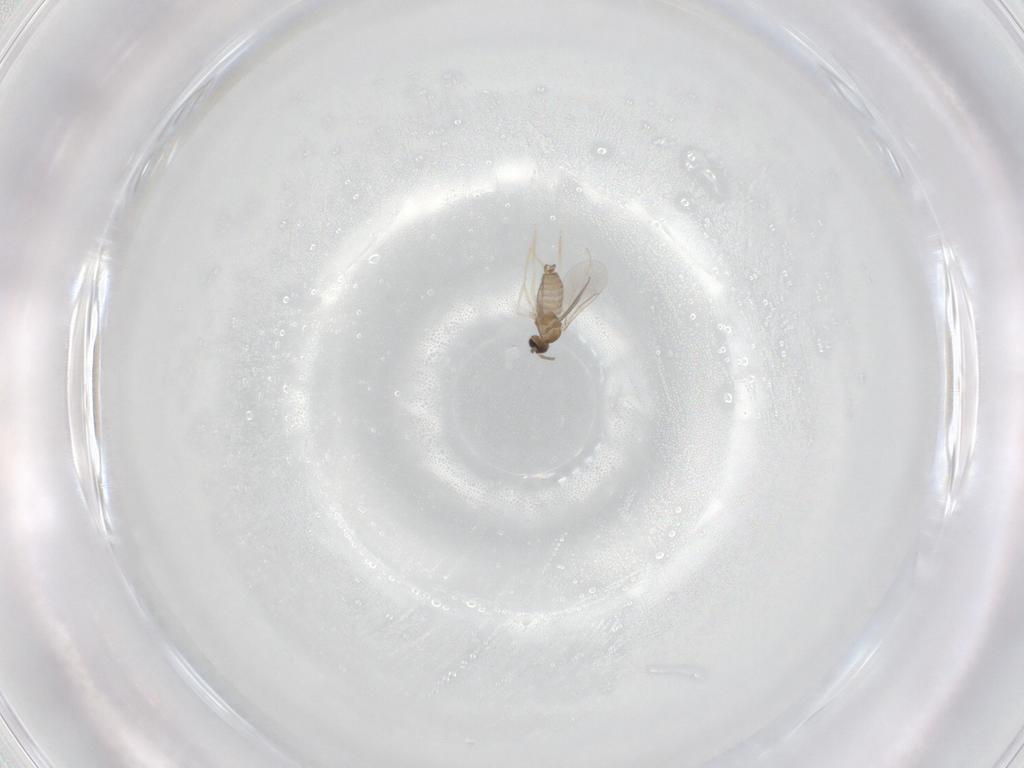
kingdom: Animalia
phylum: Arthropoda
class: Insecta
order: Diptera
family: Cecidomyiidae
